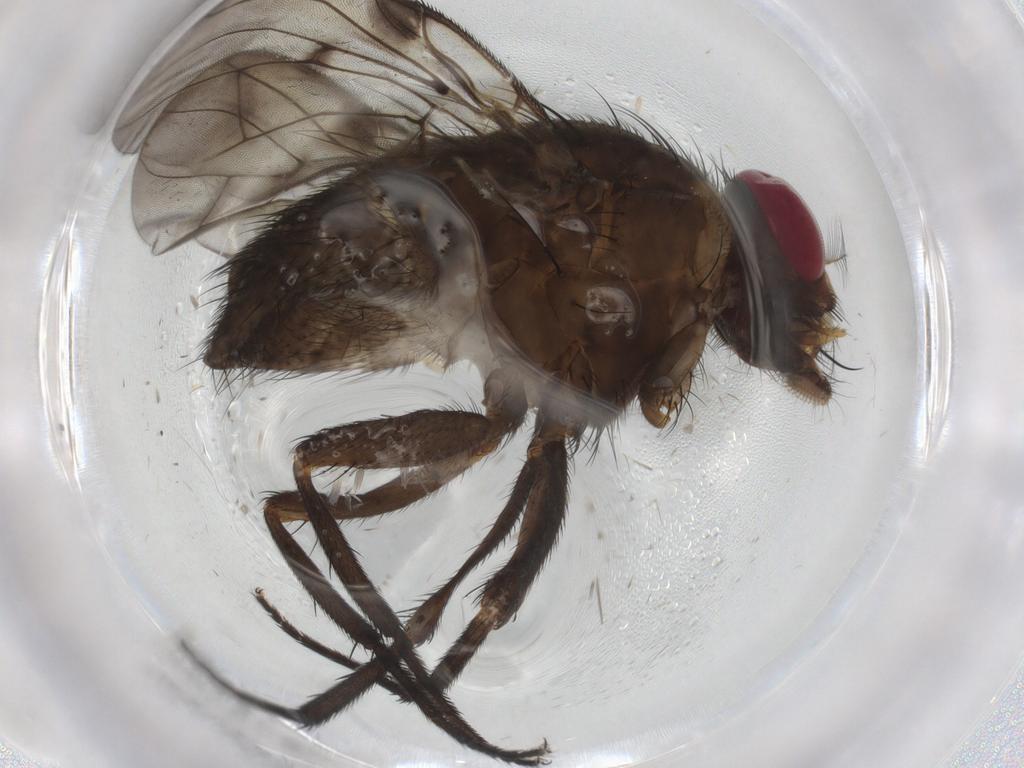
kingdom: Animalia
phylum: Arthropoda
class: Insecta
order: Diptera
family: Muscidae
